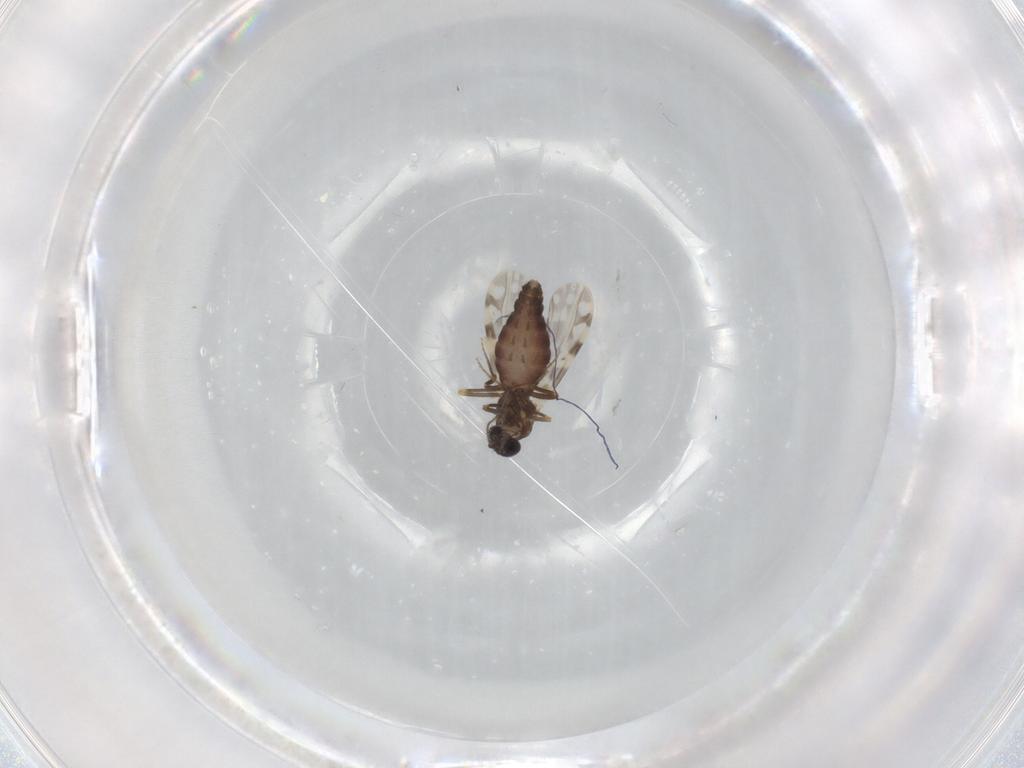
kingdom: Animalia
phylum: Arthropoda
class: Insecta
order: Diptera
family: Ceratopogonidae
